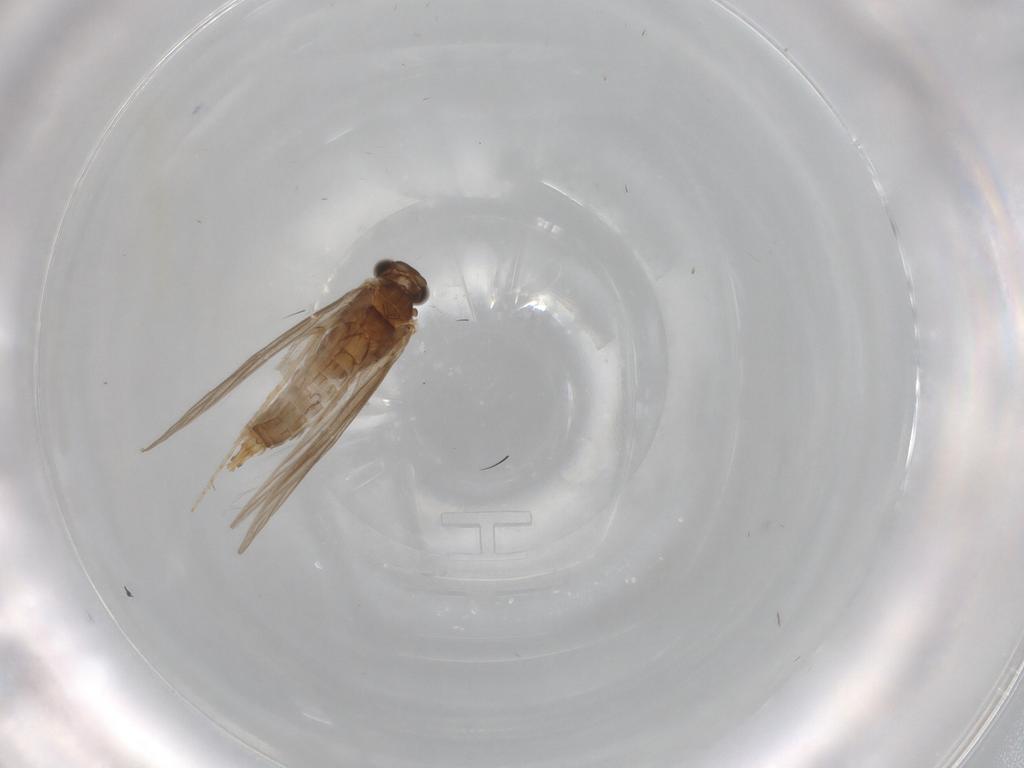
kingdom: Animalia
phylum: Arthropoda
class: Insecta
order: Trichoptera
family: Hydroptilidae
